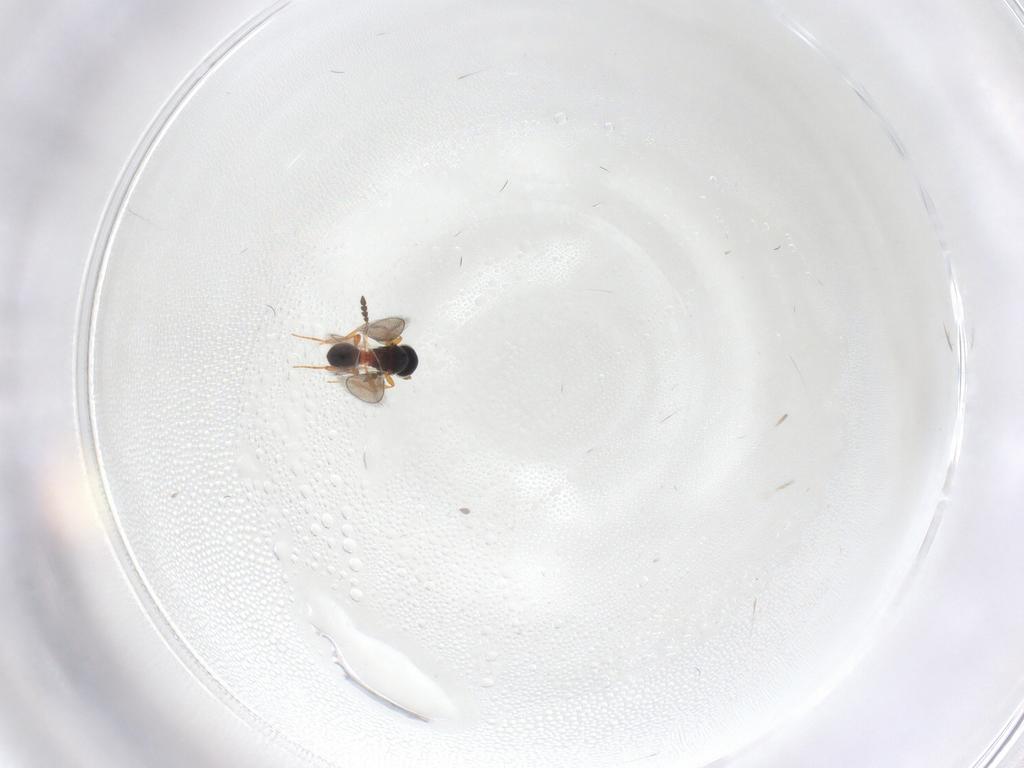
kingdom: Animalia
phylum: Arthropoda
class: Insecta
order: Hymenoptera
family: Platygastridae
